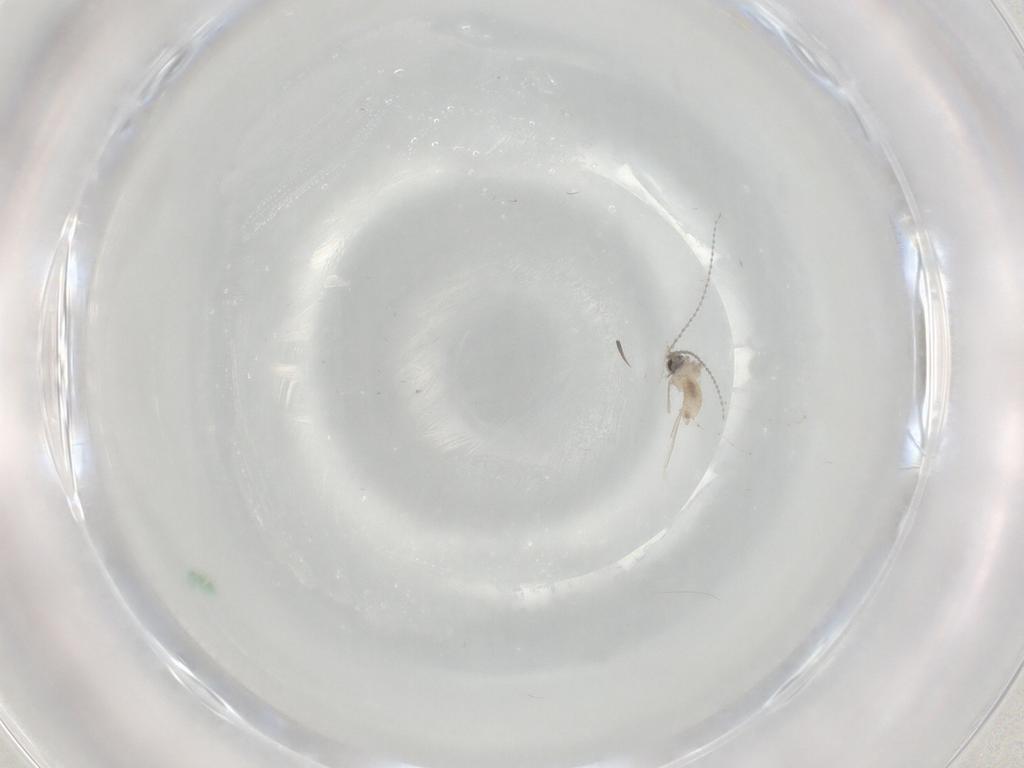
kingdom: Animalia
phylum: Arthropoda
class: Insecta
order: Diptera
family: Cecidomyiidae
